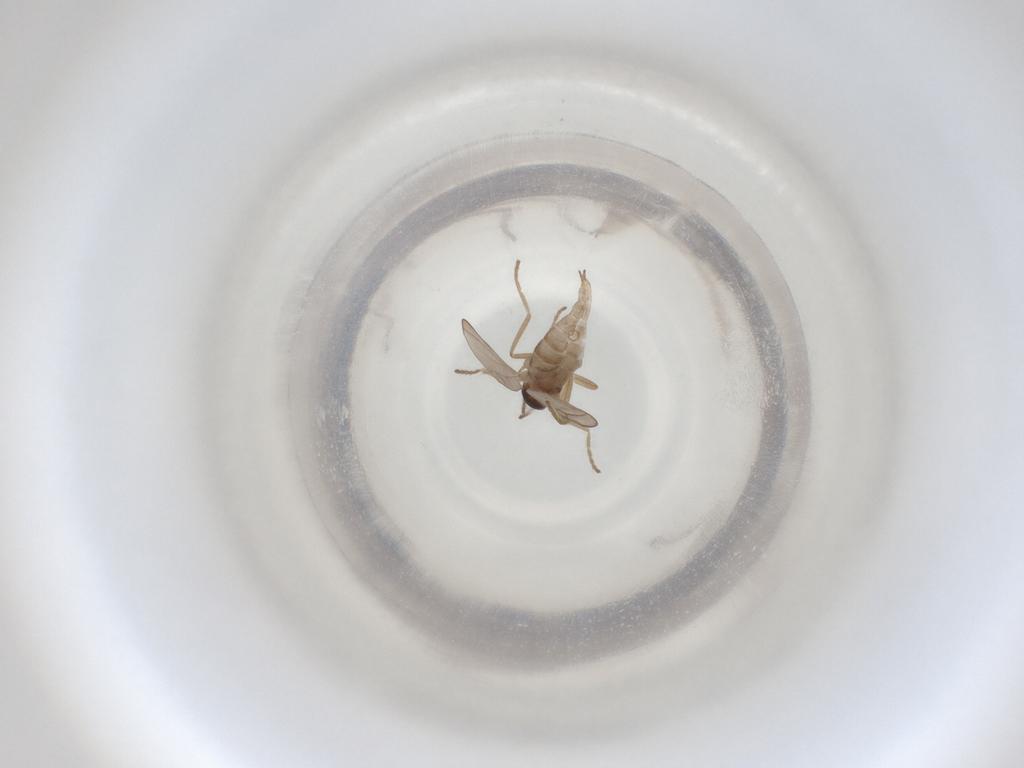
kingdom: Animalia
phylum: Arthropoda
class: Insecta
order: Diptera
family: Cecidomyiidae
